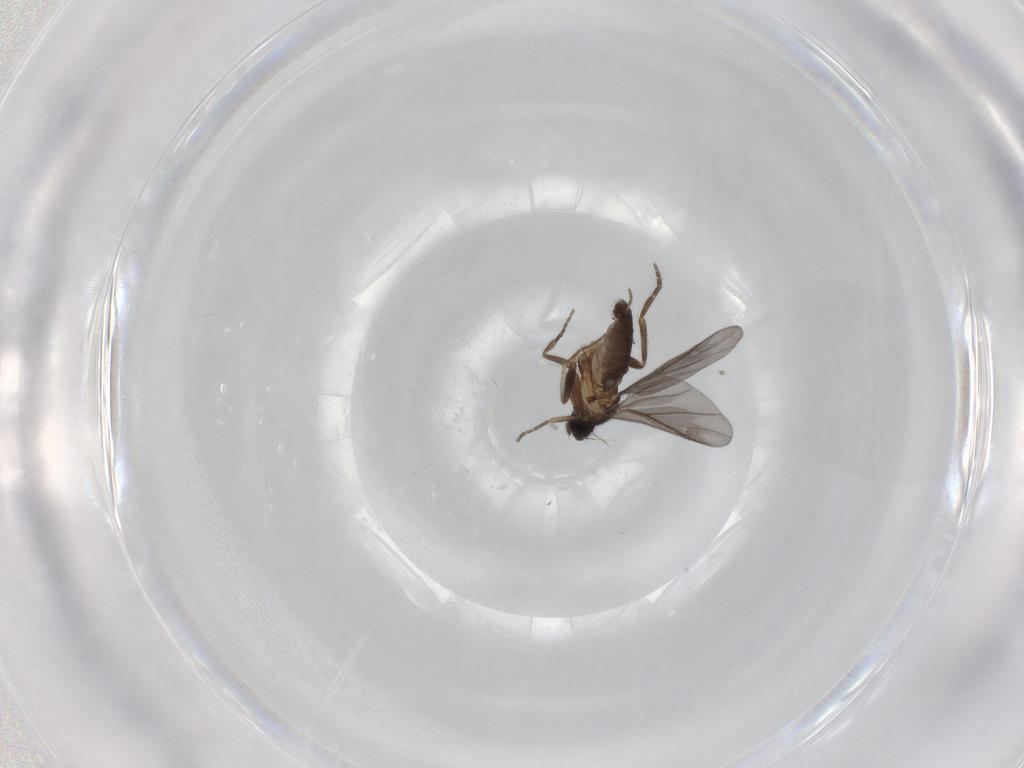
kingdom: Animalia
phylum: Arthropoda
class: Insecta
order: Diptera
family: Phoridae
